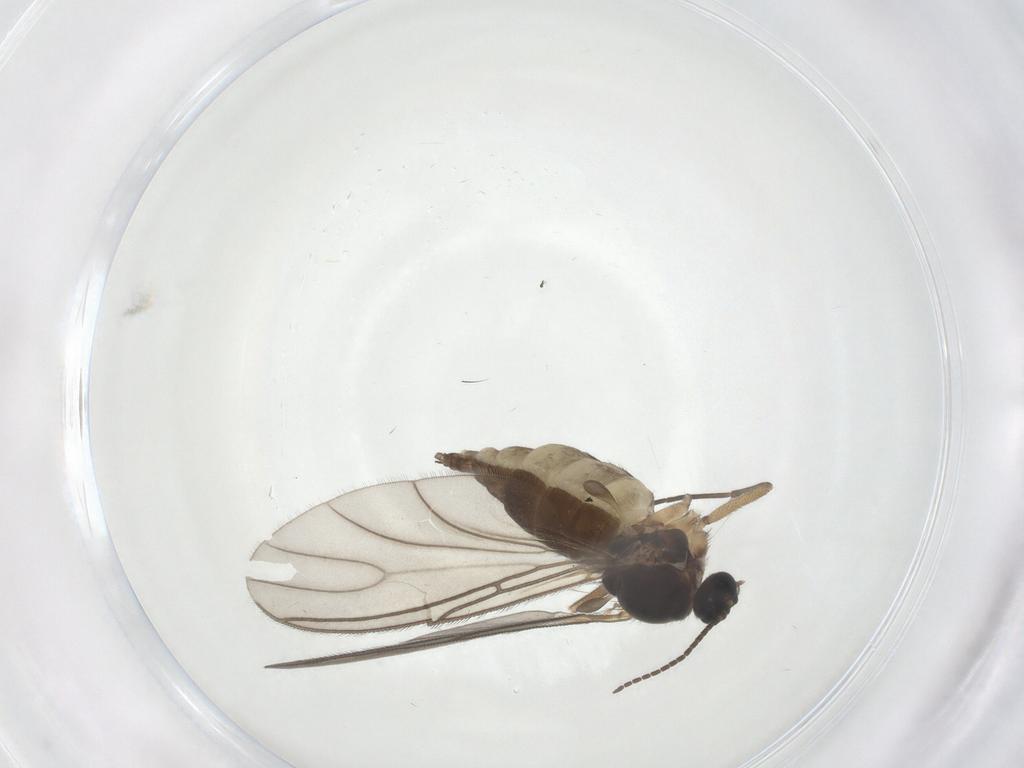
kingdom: Animalia
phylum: Arthropoda
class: Insecta
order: Diptera
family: Sciaridae
